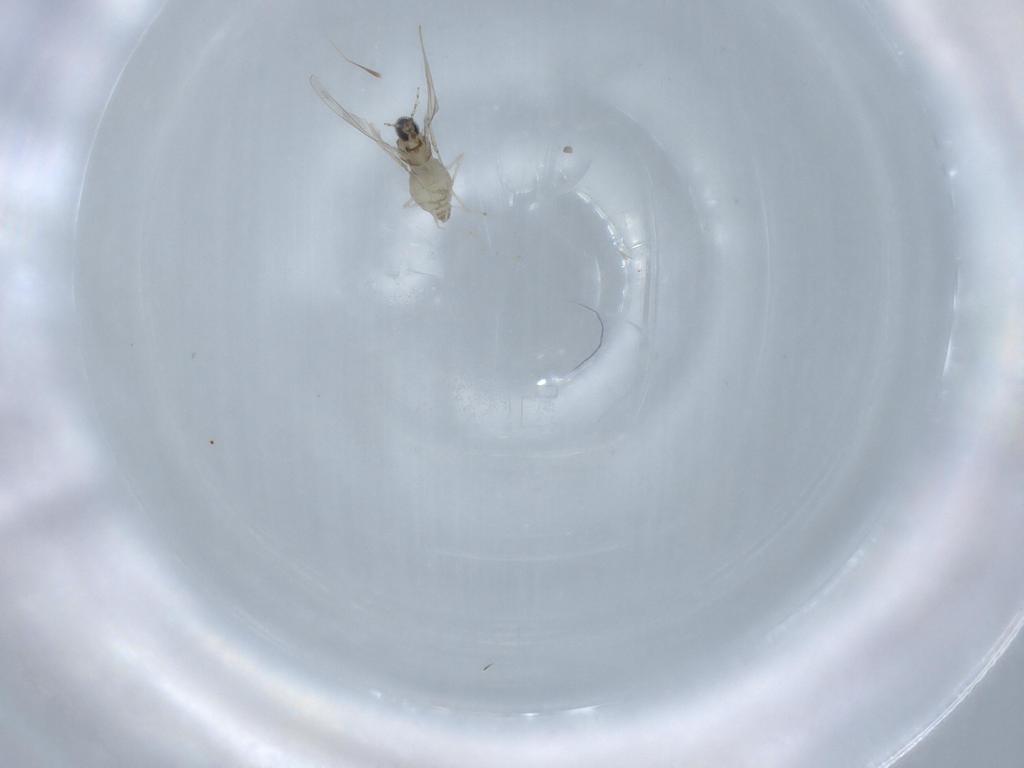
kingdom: Animalia
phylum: Arthropoda
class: Insecta
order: Diptera
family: Cecidomyiidae
